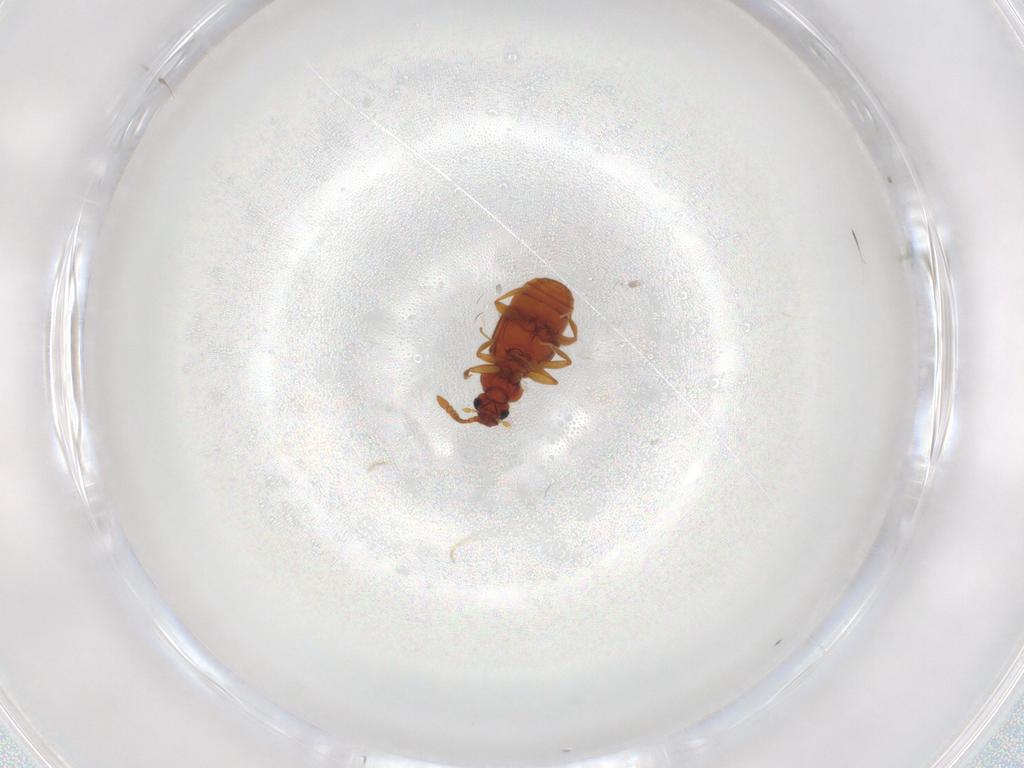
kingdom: Animalia
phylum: Arthropoda
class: Insecta
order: Coleoptera
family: Staphylinidae
